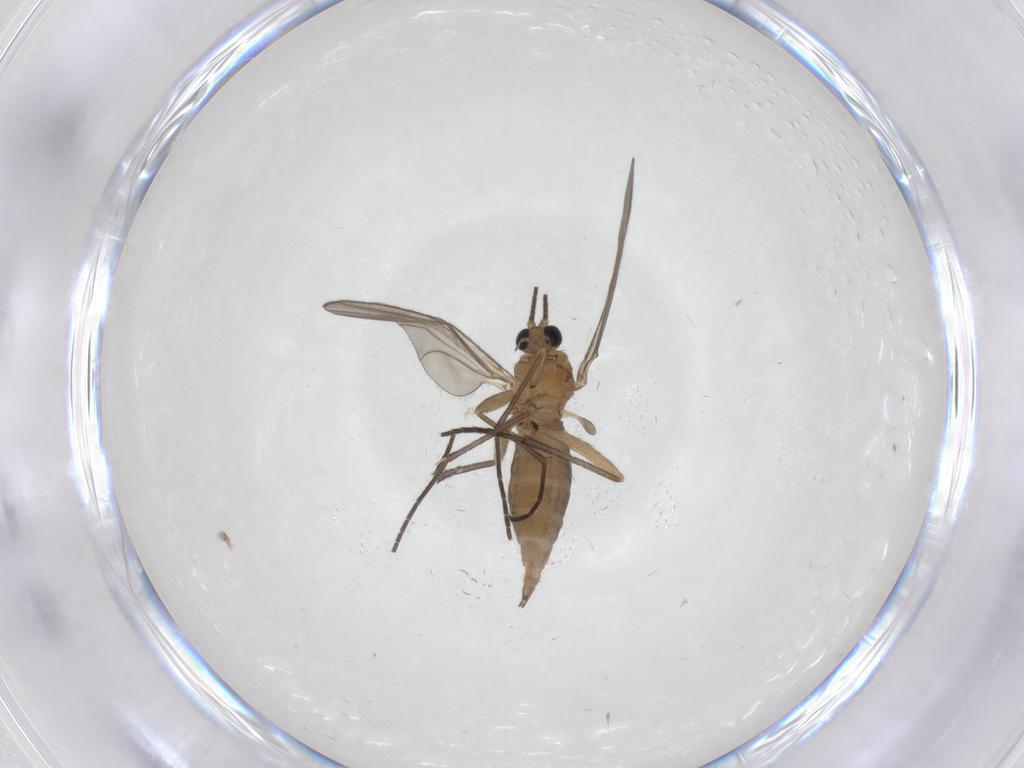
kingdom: Animalia
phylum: Arthropoda
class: Insecta
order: Diptera
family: Sciaridae
